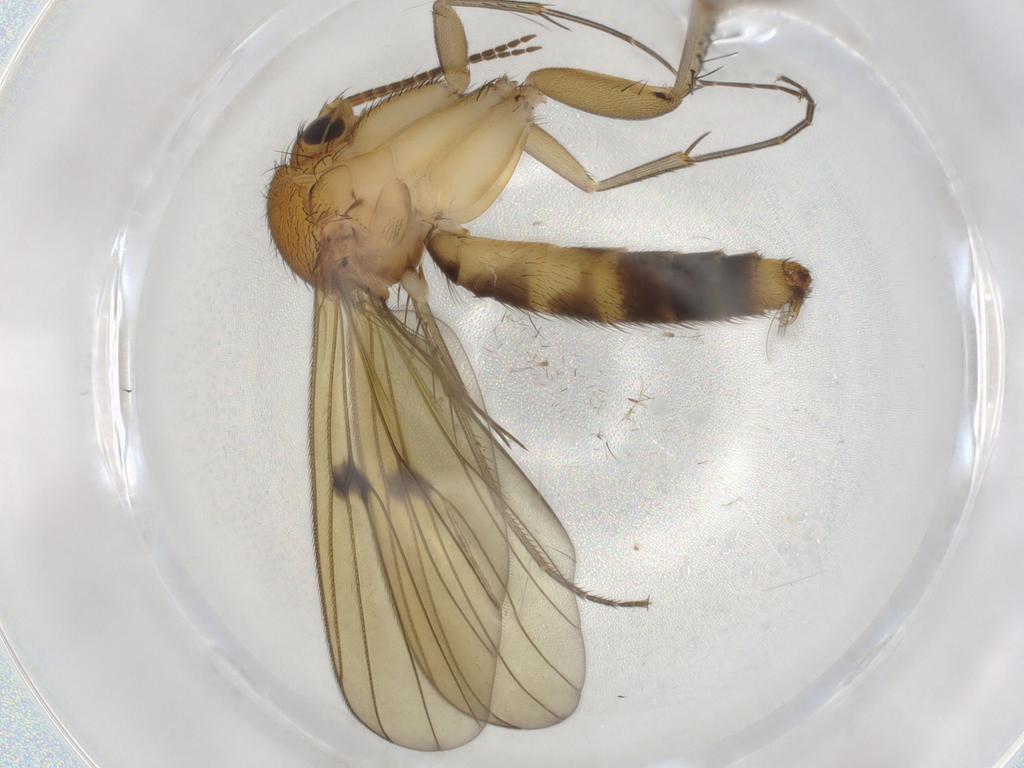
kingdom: Animalia
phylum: Arthropoda
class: Insecta
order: Diptera
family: Mycetophilidae
